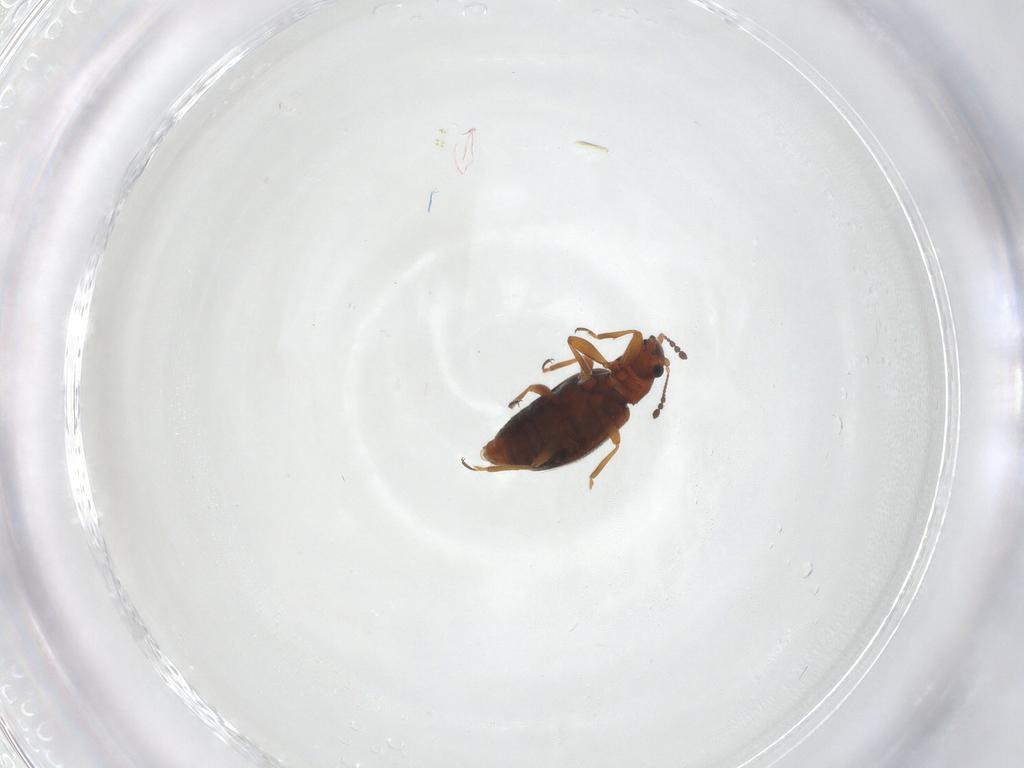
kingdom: Animalia
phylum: Arthropoda
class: Insecta
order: Coleoptera
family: Latridiidae
